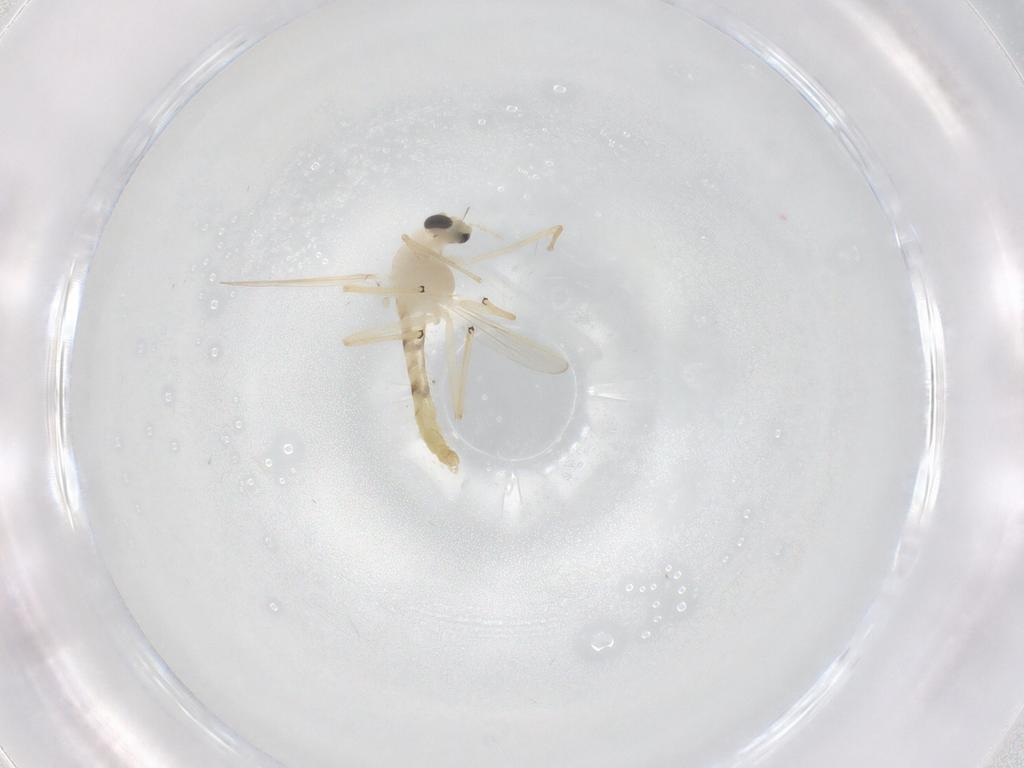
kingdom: Animalia
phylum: Arthropoda
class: Insecta
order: Diptera
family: Chironomidae
